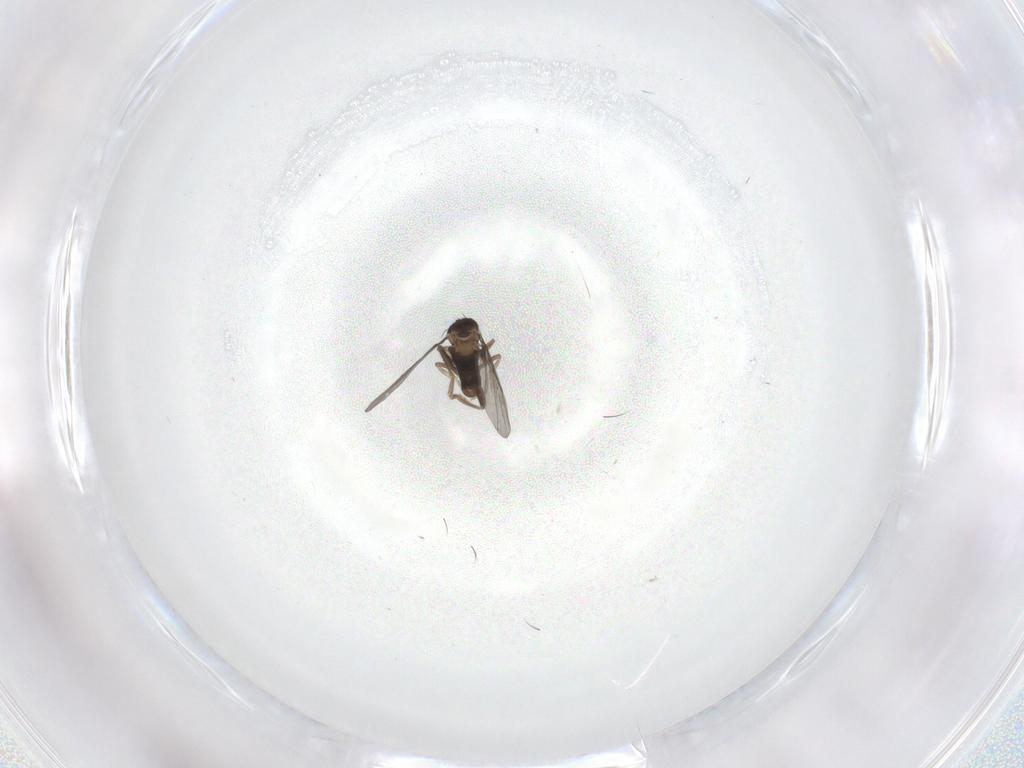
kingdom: Animalia
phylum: Arthropoda
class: Insecta
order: Diptera
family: Cecidomyiidae
